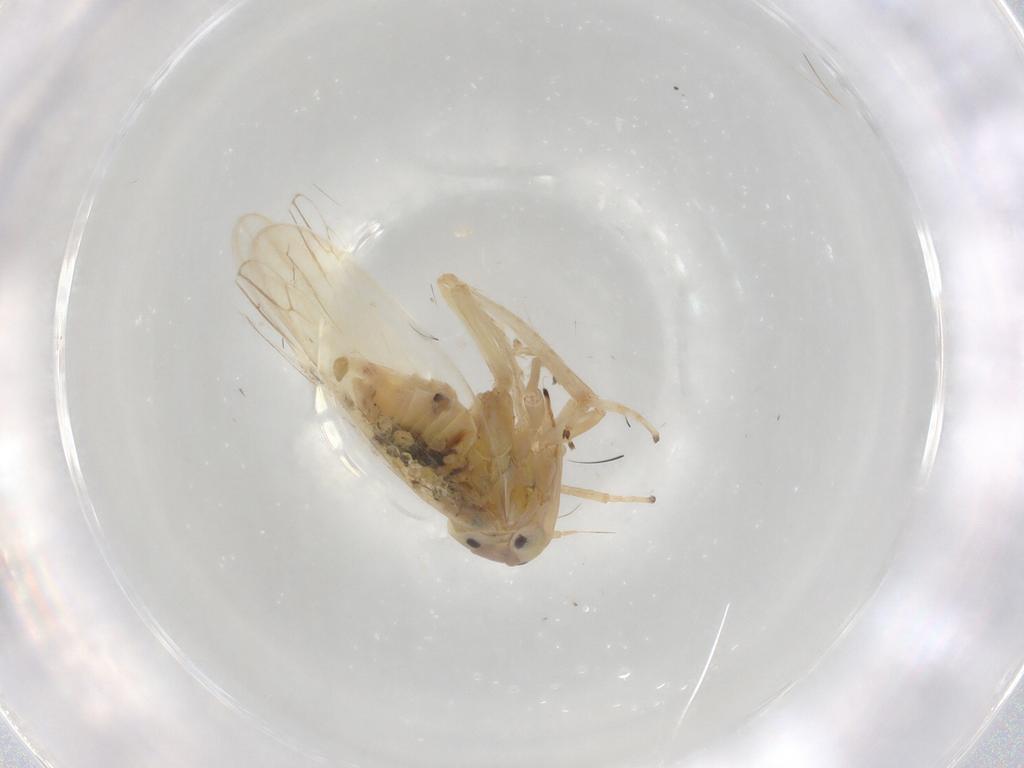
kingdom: Animalia
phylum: Arthropoda
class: Insecta
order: Hemiptera
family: Cicadellidae
